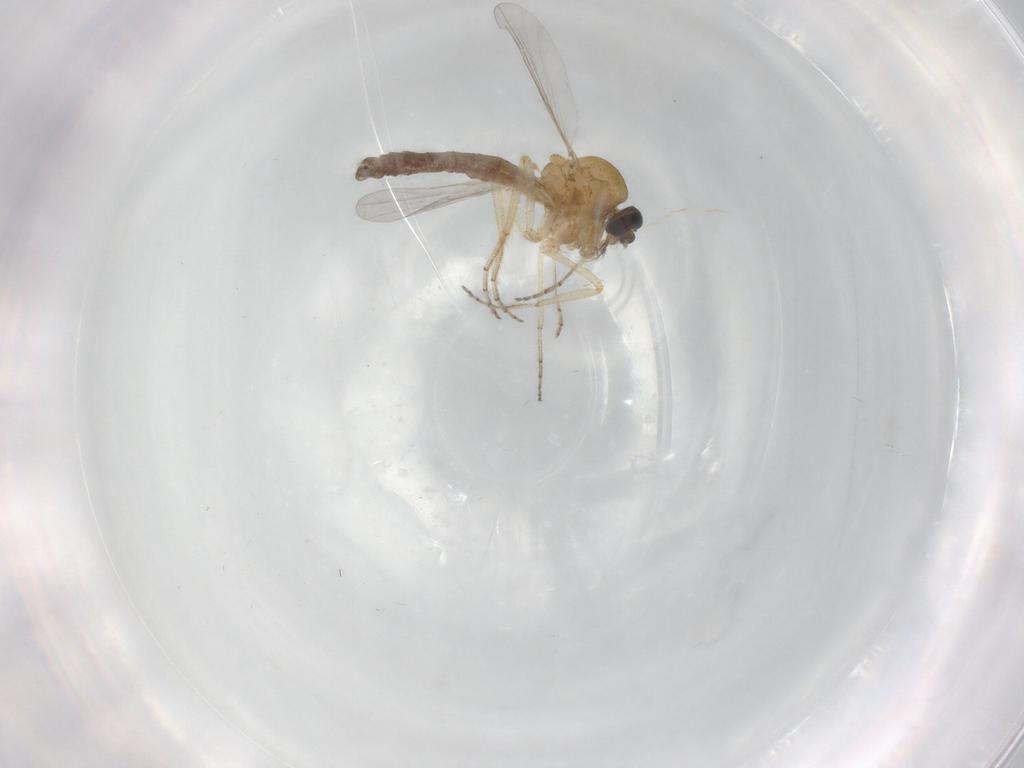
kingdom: Animalia
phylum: Arthropoda
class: Insecta
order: Diptera
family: Ceratopogonidae
